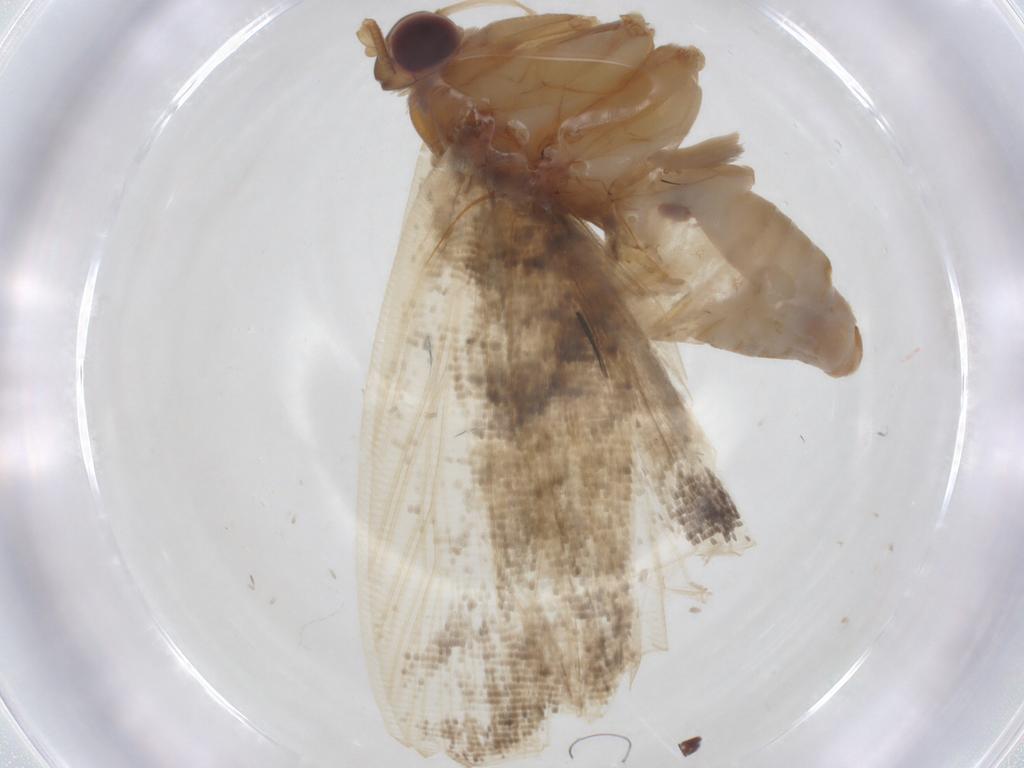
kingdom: Animalia
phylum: Arthropoda
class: Insecta
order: Lepidoptera
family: Tortricidae
